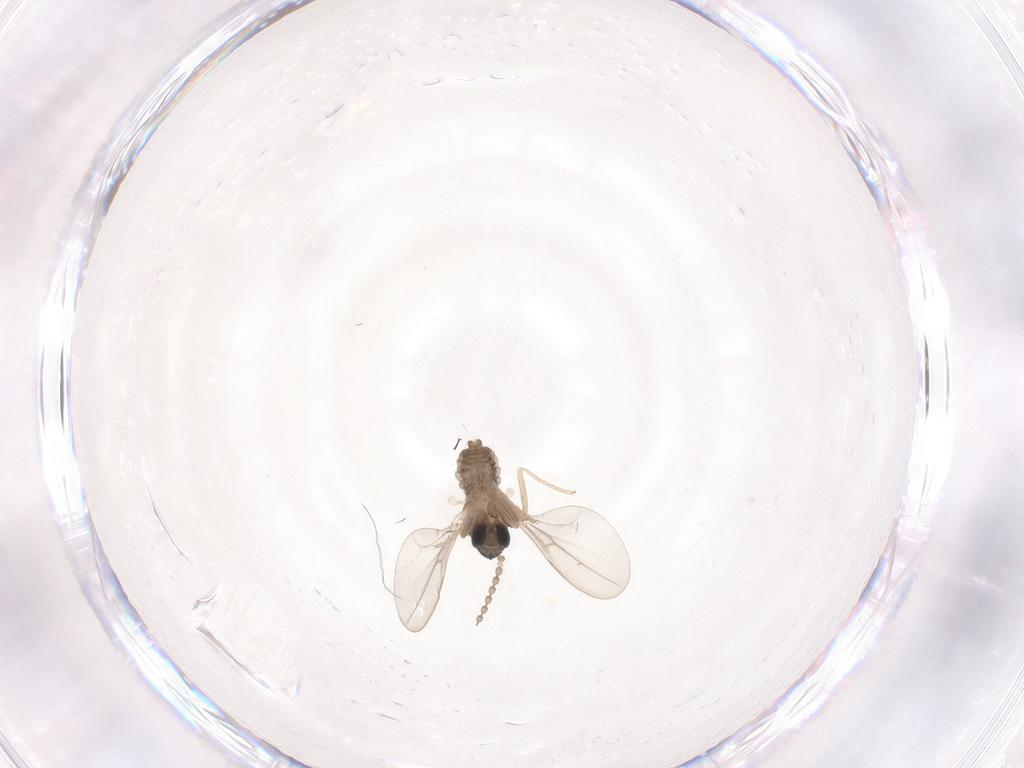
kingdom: Animalia
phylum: Arthropoda
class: Insecta
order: Diptera
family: Cecidomyiidae
